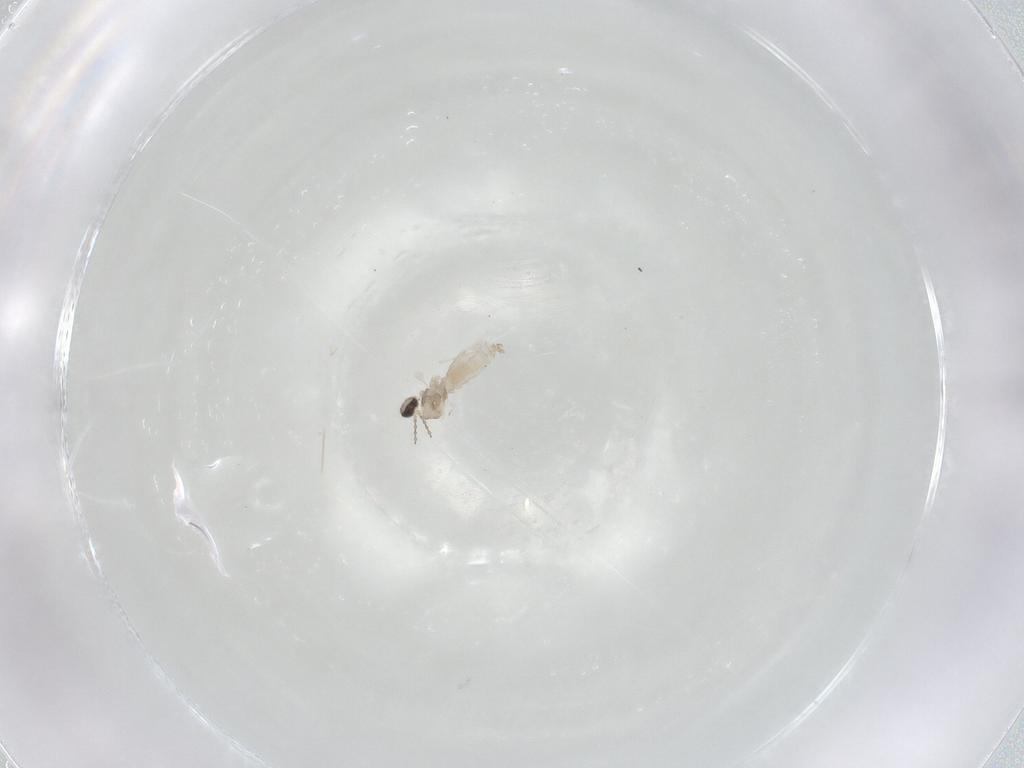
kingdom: Animalia
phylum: Arthropoda
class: Insecta
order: Diptera
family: Cecidomyiidae
